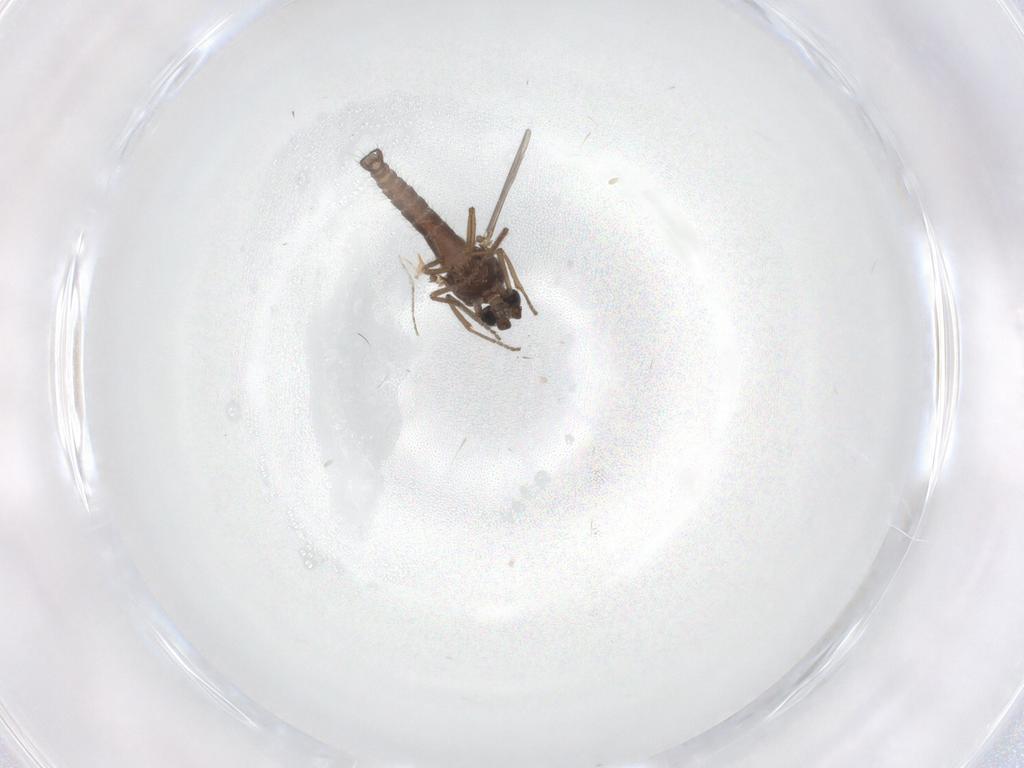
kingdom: Animalia
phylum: Arthropoda
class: Insecta
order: Diptera
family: Ceratopogonidae
